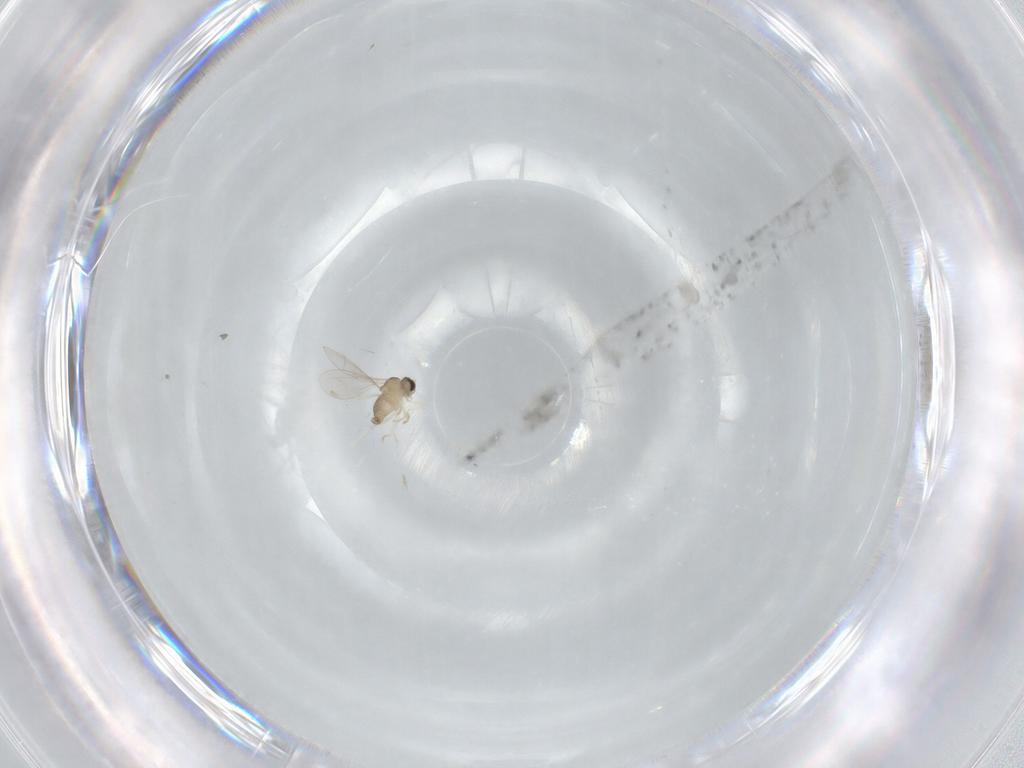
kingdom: Animalia
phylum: Arthropoda
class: Insecta
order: Diptera
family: Cecidomyiidae
